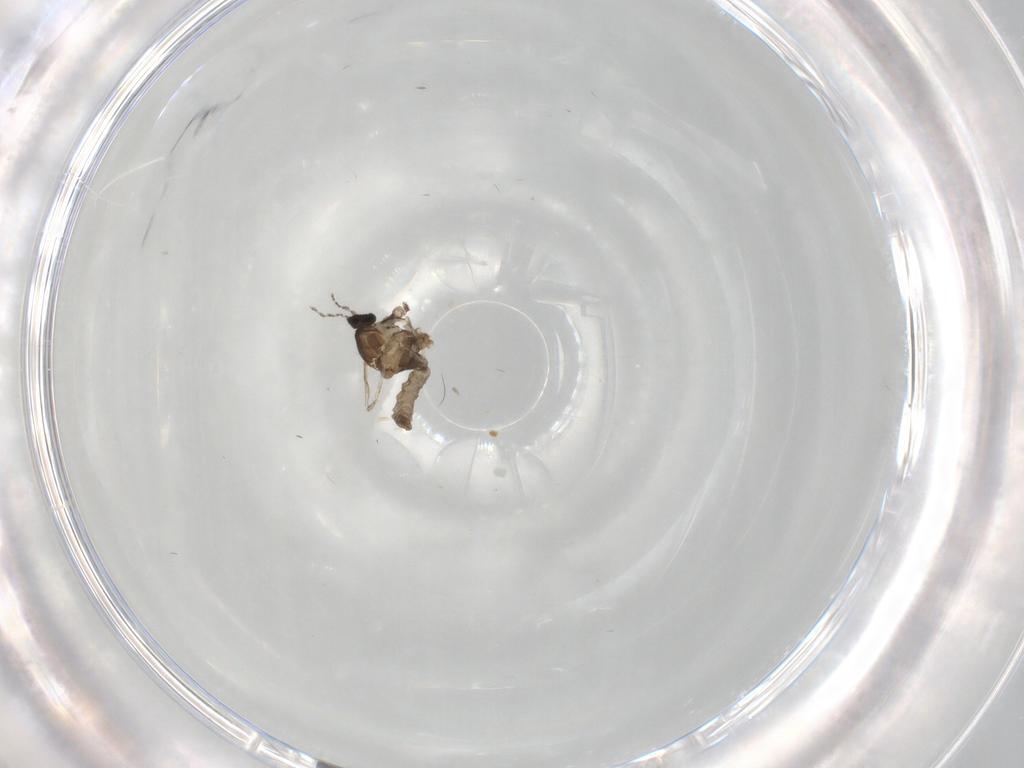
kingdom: Animalia
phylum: Arthropoda
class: Insecta
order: Diptera
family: Cecidomyiidae
